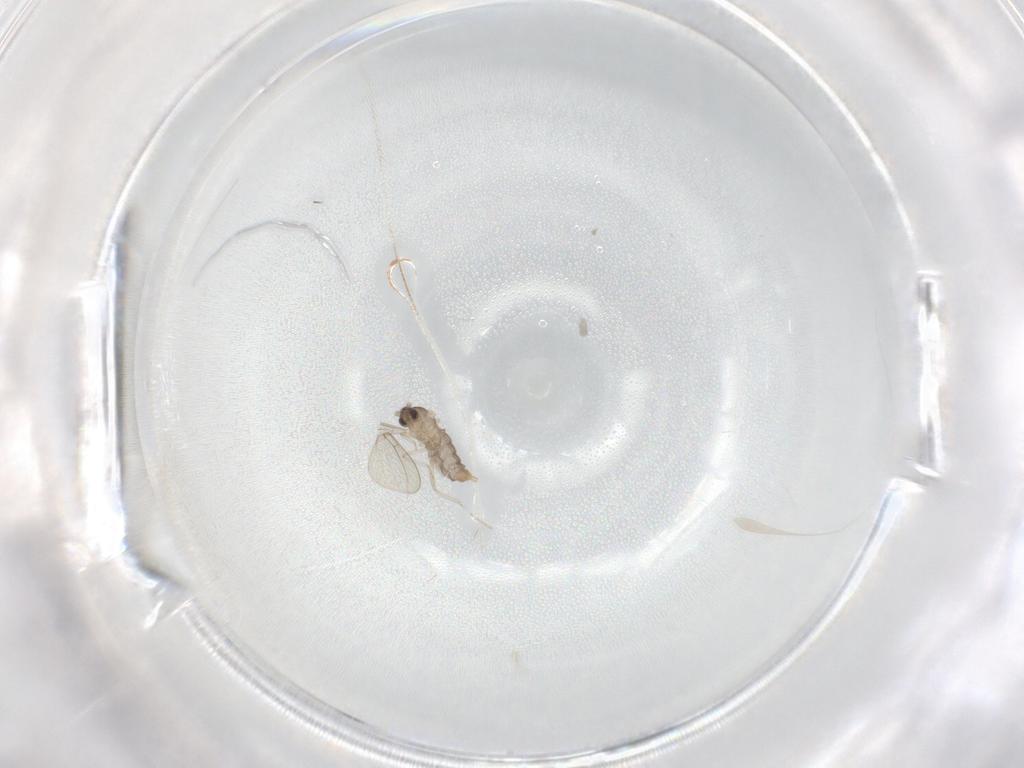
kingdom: Animalia
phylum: Arthropoda
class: Insecta
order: Diptera
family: Cecidomyiidae
